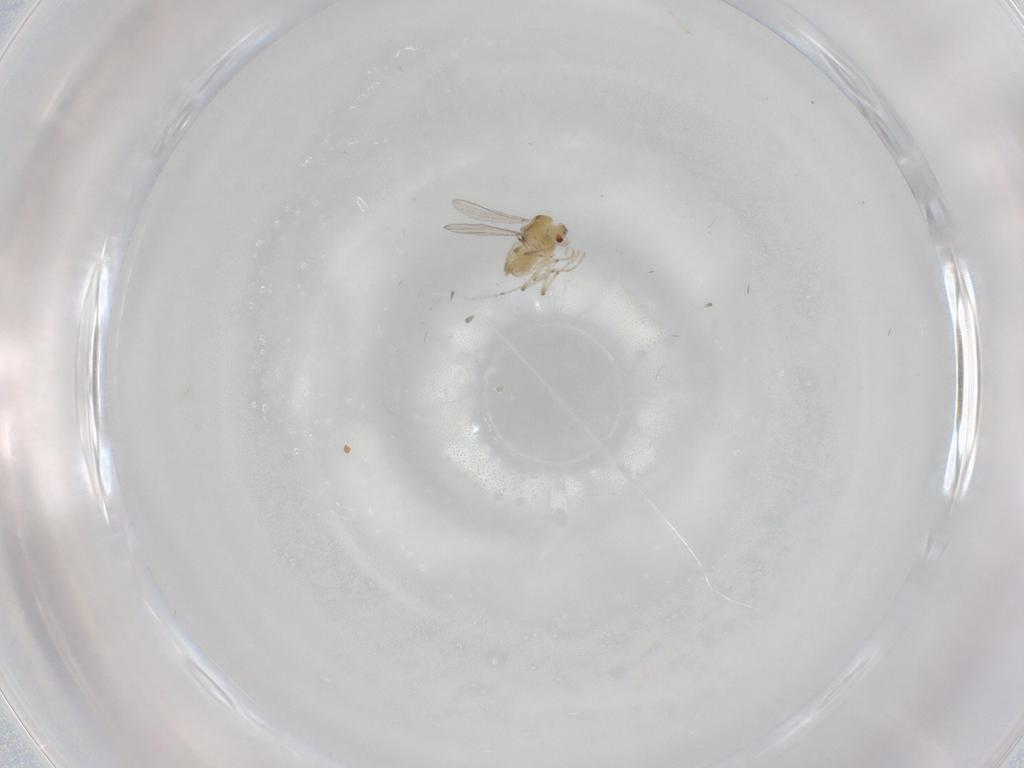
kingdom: Animalia
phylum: Arthropoda
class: Insecta
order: Diptera
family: Chironomidae
